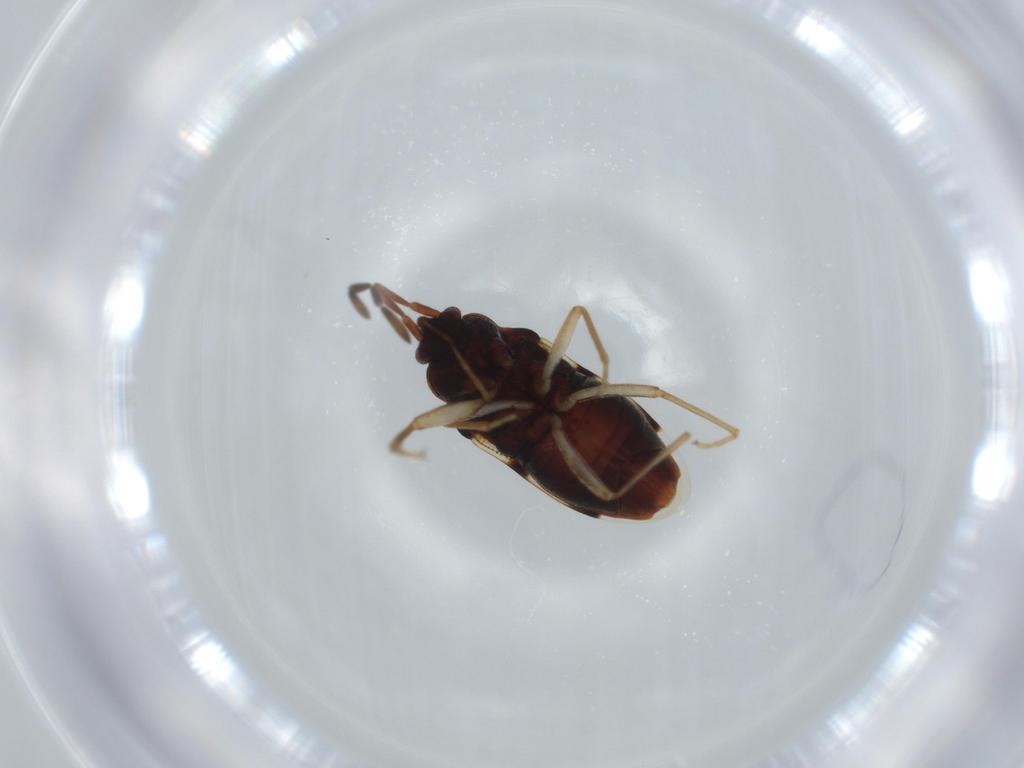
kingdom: Animalia
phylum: Arthropoda
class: Insecta
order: Hemiptera
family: Rhyparochromidae
